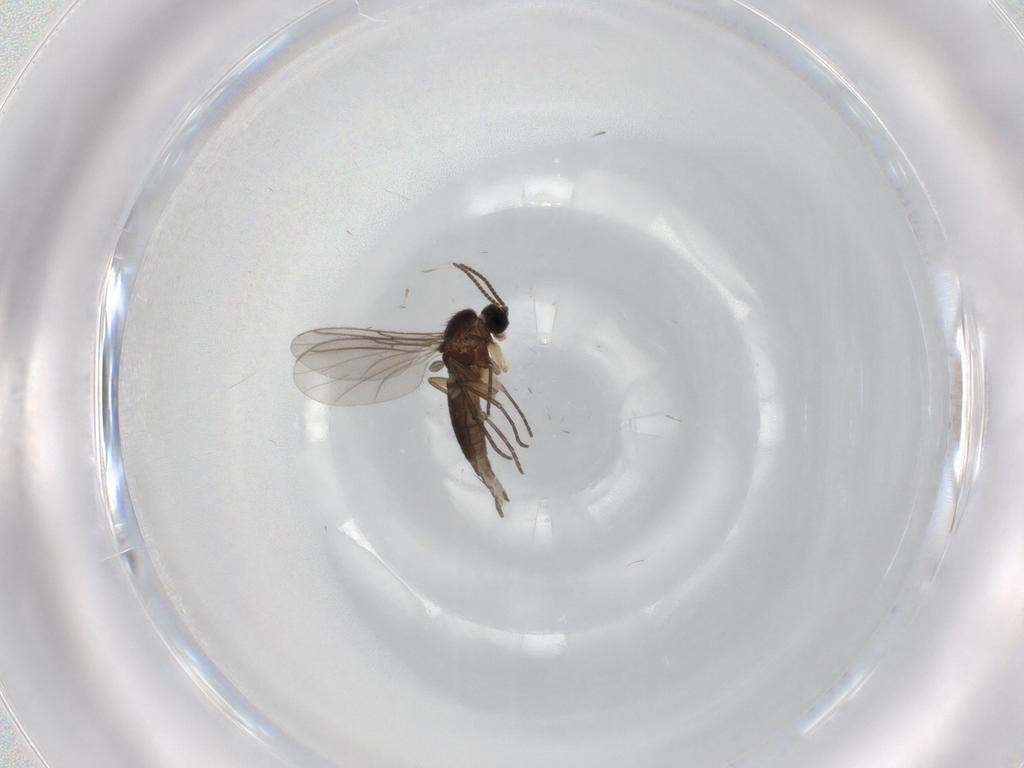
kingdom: Animalia
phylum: Arthropoda
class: Insecta
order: Diptera
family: Sciaridae
